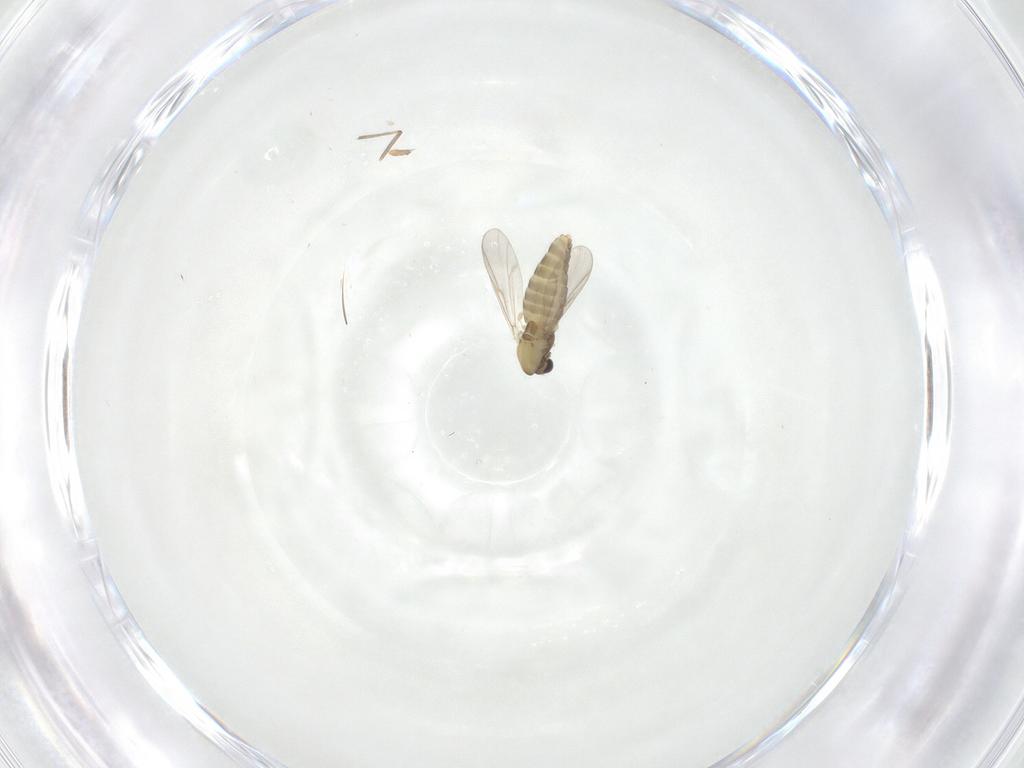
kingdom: Animalia
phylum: Arthropoda
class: Insecta
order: Diptera
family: Chironomidae
